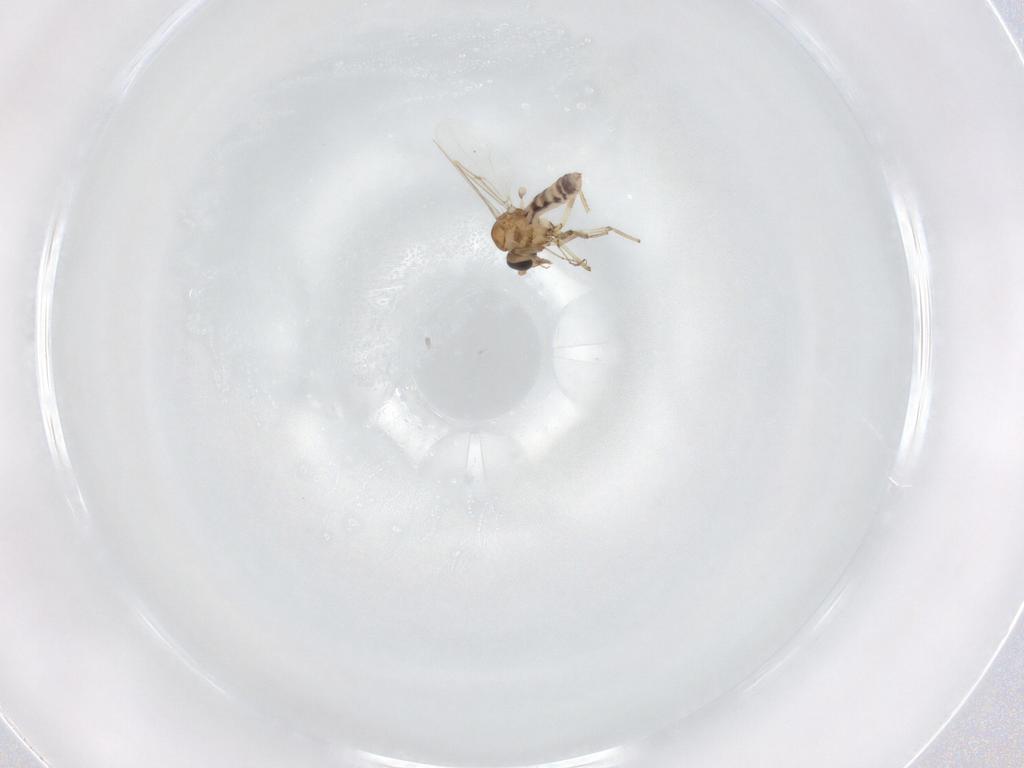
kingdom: Animalia
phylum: Arthropoda
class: Insecta
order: Diptera
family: Ceratopogonidae
